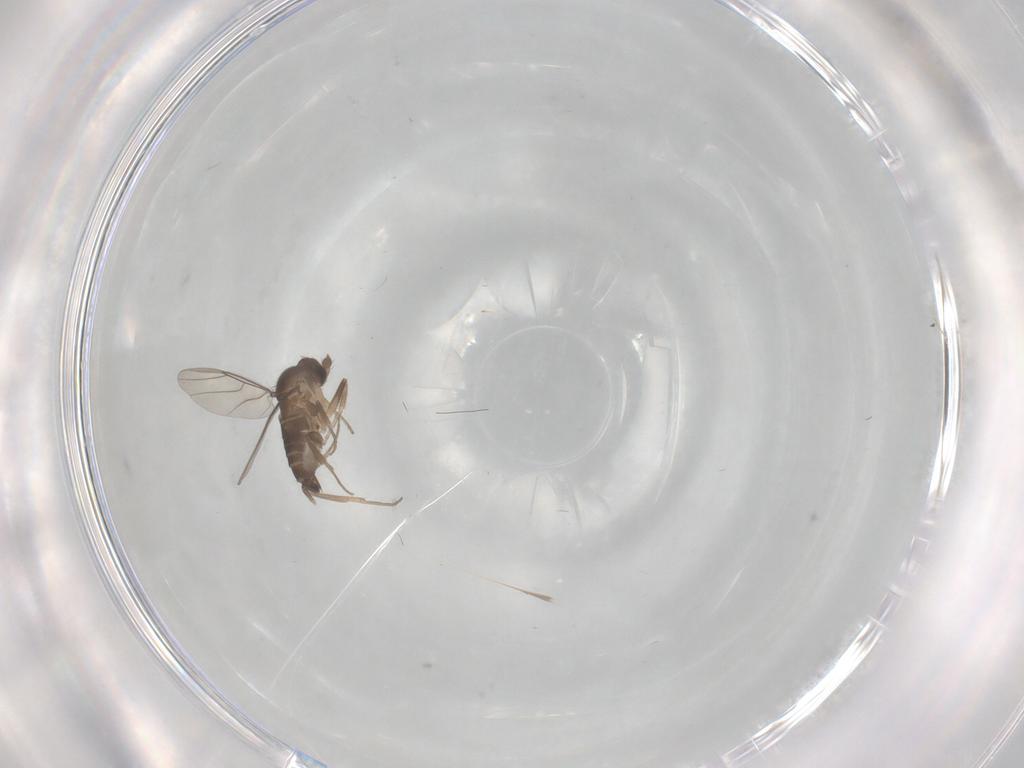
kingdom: Animalia
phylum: Arthropoda
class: Insecta
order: Diptera
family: Phoridae
